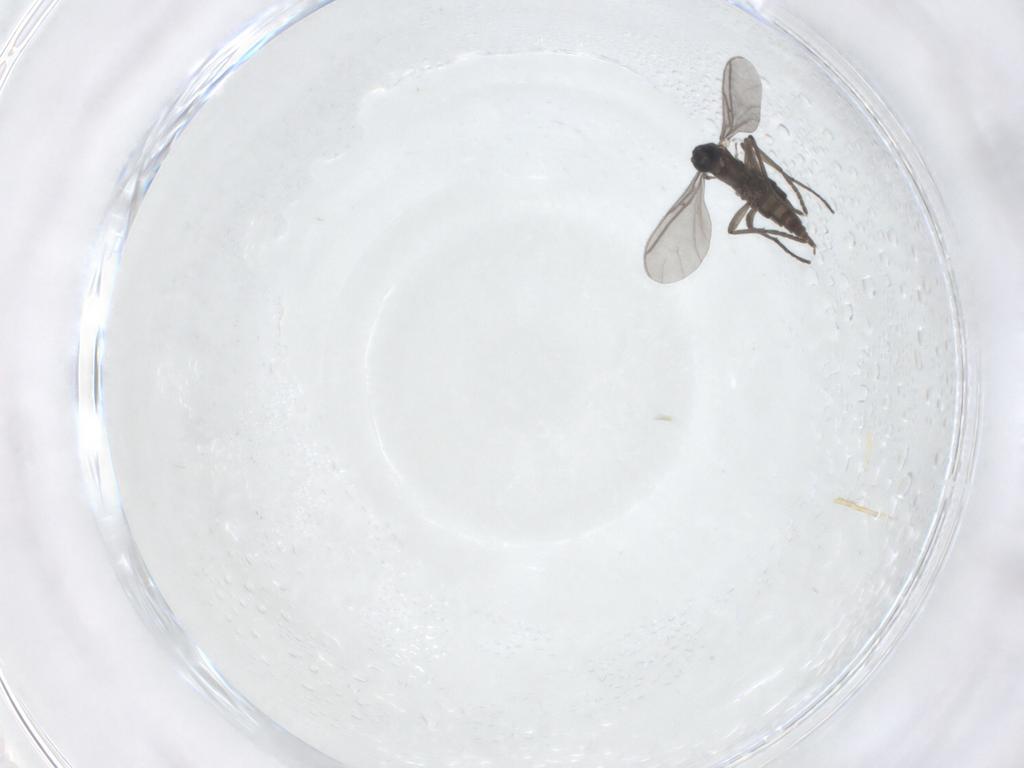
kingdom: Animalia
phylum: Arthropoda
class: Insecta
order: Diptera
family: Sciaridae
